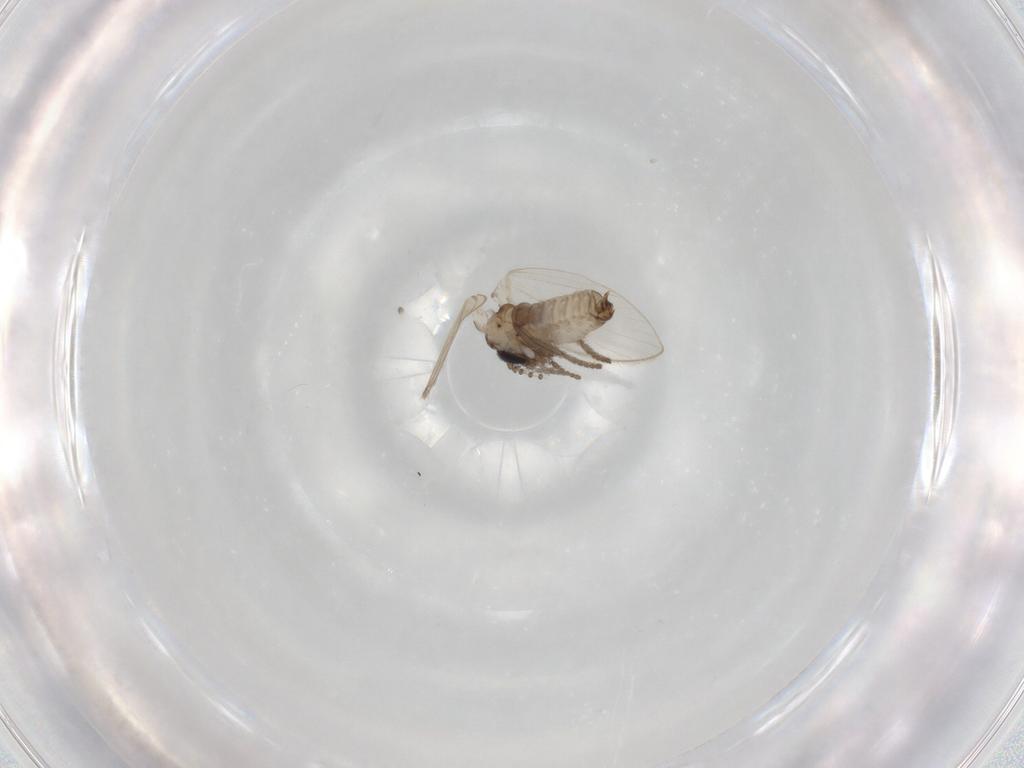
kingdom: Animalia
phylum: Arthropoda
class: Insecta
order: Diptera
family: Psychodidae
